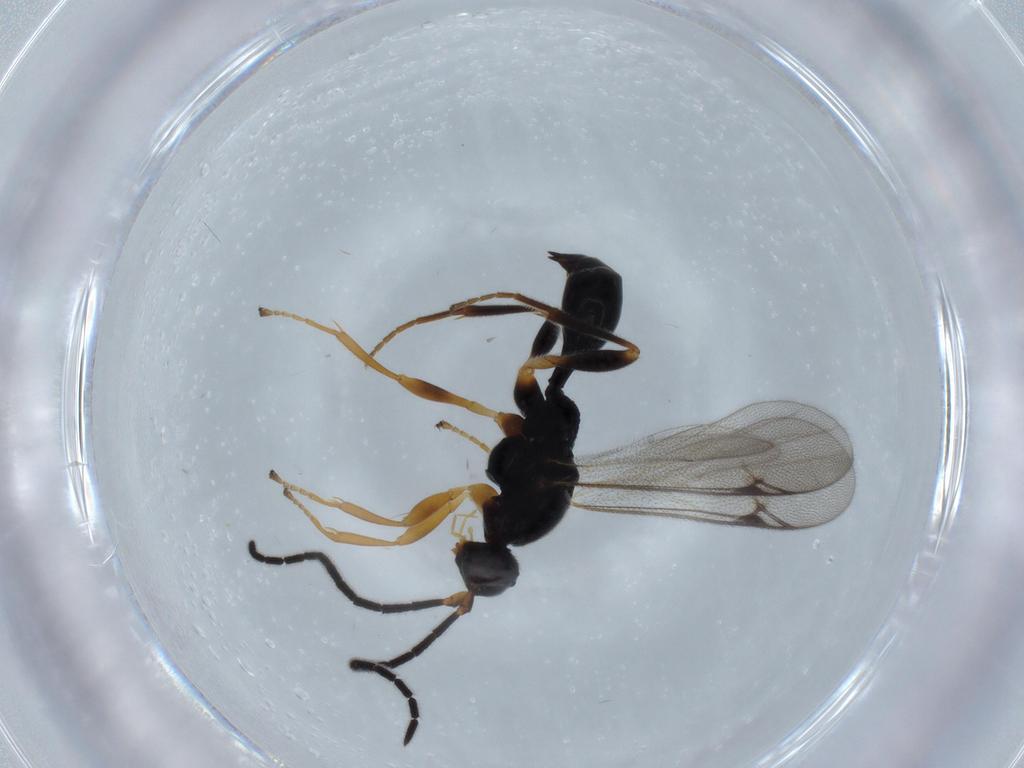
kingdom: Animalia
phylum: Arthropoda
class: Insecta
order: Hymenoptera
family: Proctotrupidae
